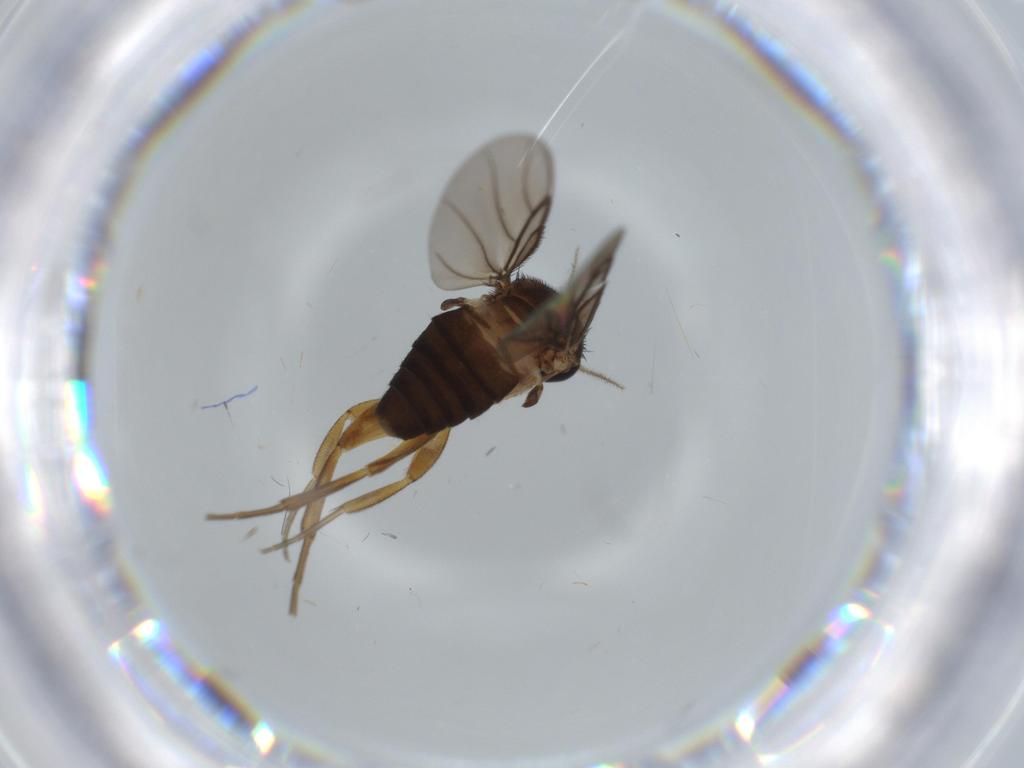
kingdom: Animalia
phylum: Arthropoda
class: Insecta
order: Diptera
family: Phoridae
